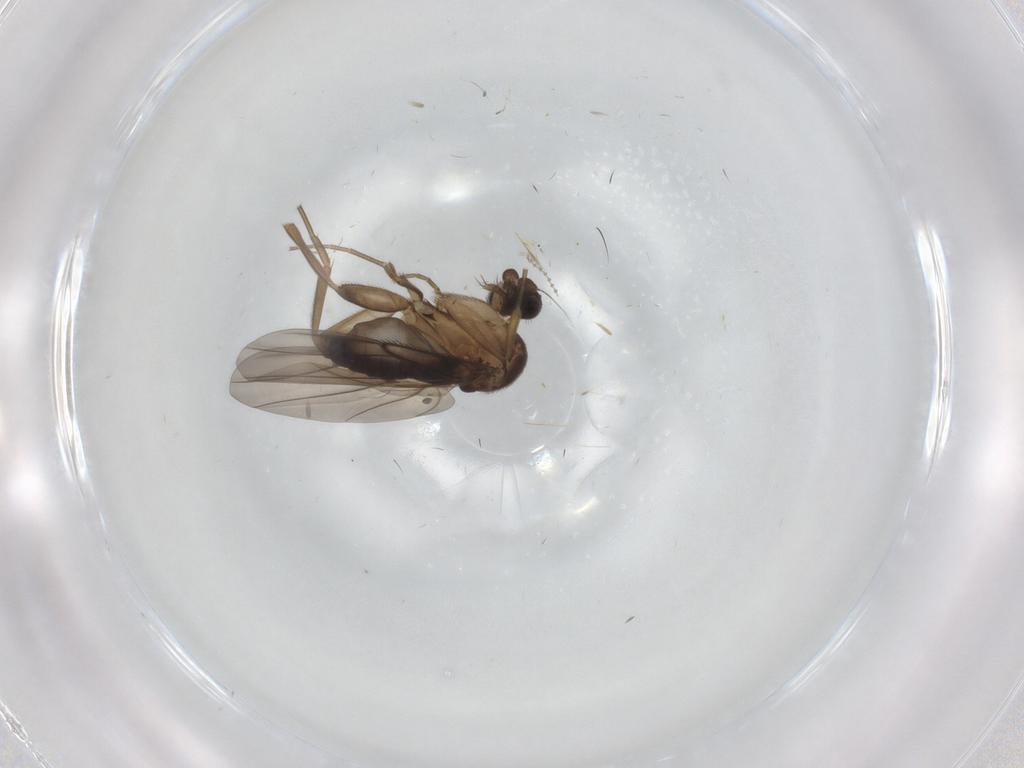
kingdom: Animalia
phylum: Arthropoda
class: Insecta
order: Diptera
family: Phoridae
